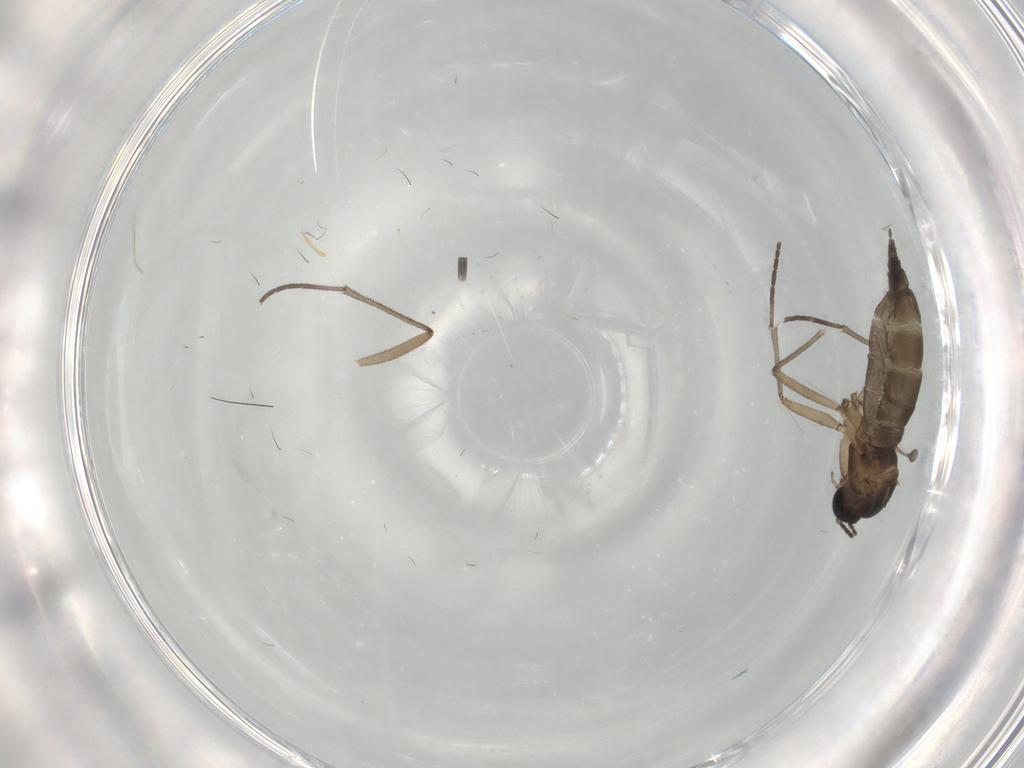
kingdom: Animalia
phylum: Arthropoda
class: Insecta
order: Diptera
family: Sciaridae
